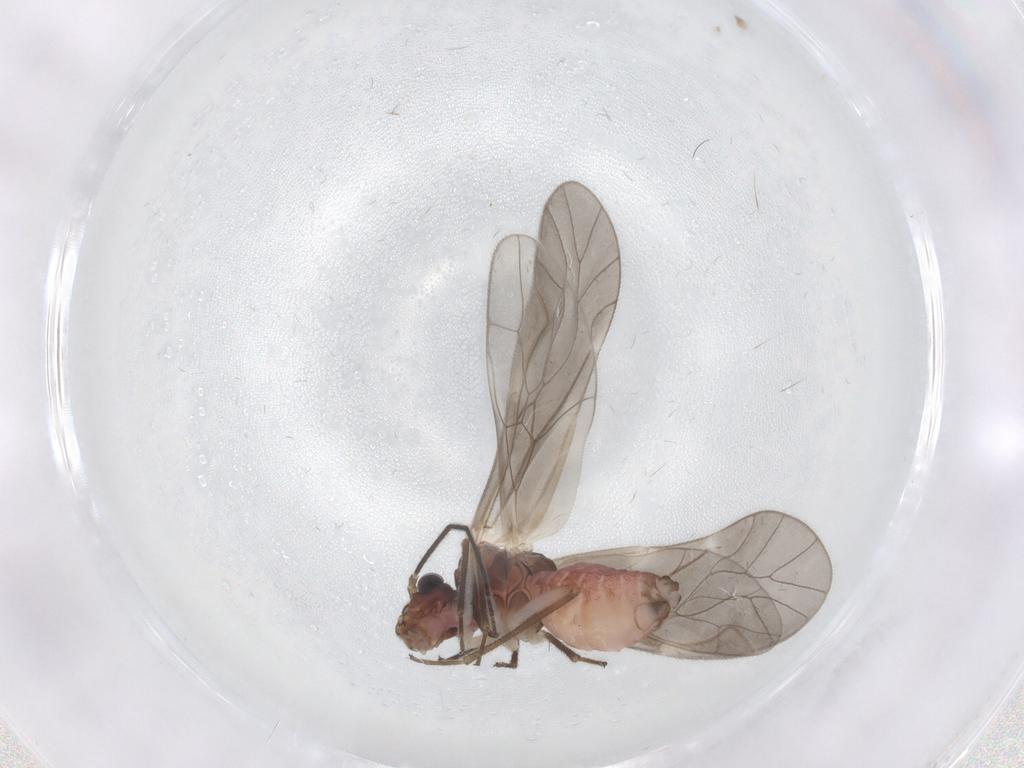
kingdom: Animalia
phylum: Arthropoda
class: Insecta
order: Psocodea
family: Caeciliusidae
